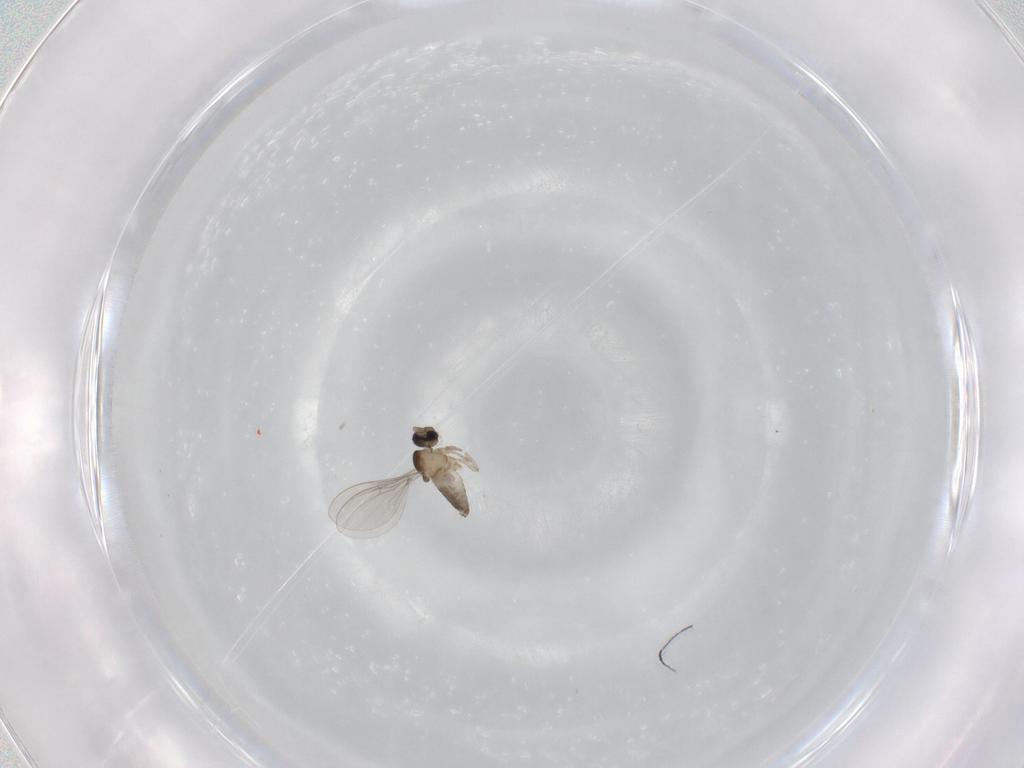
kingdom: Animalia
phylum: Arthropoda
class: Insecta
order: Diptera
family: Cecidomyiidae
